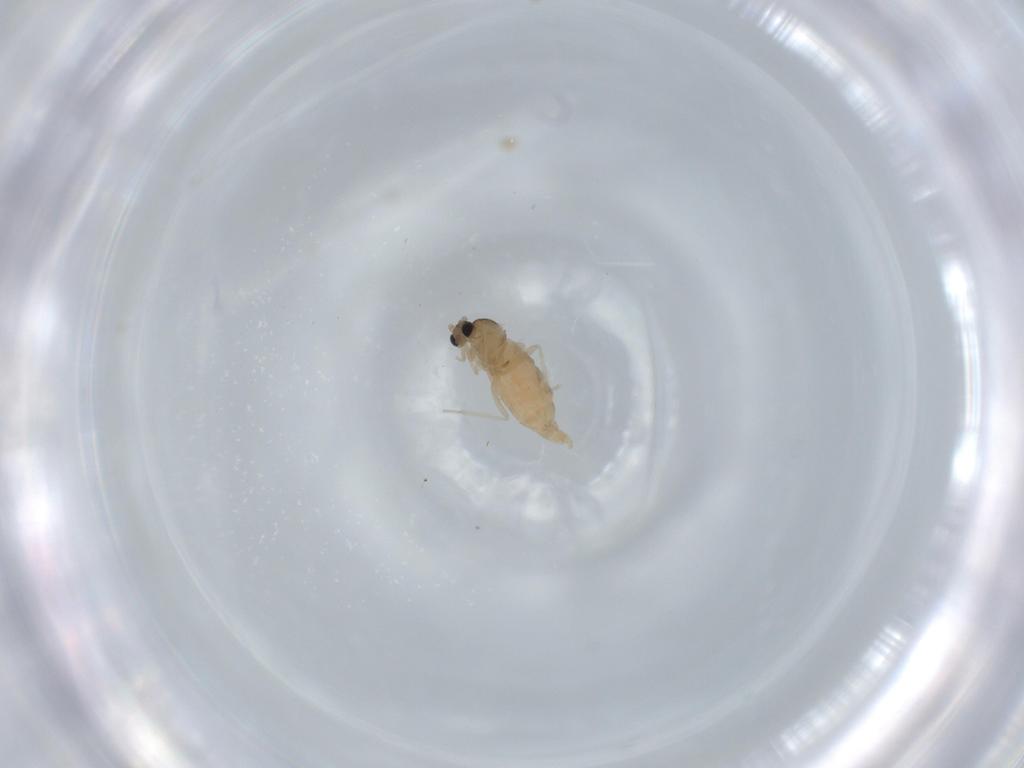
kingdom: Animalia
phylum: Arthropoda
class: Insecta
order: Diptera
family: Cecidomyiidae
